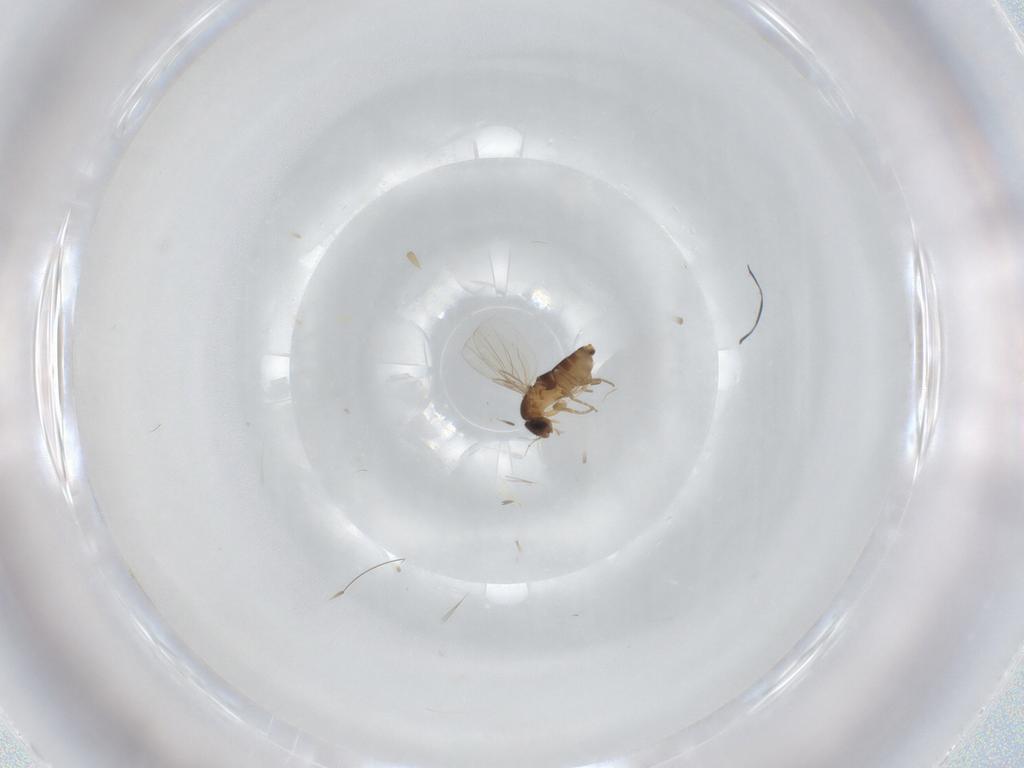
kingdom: Animalia
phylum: Arthropoda
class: Insecta
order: Diptera
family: Phoridae
